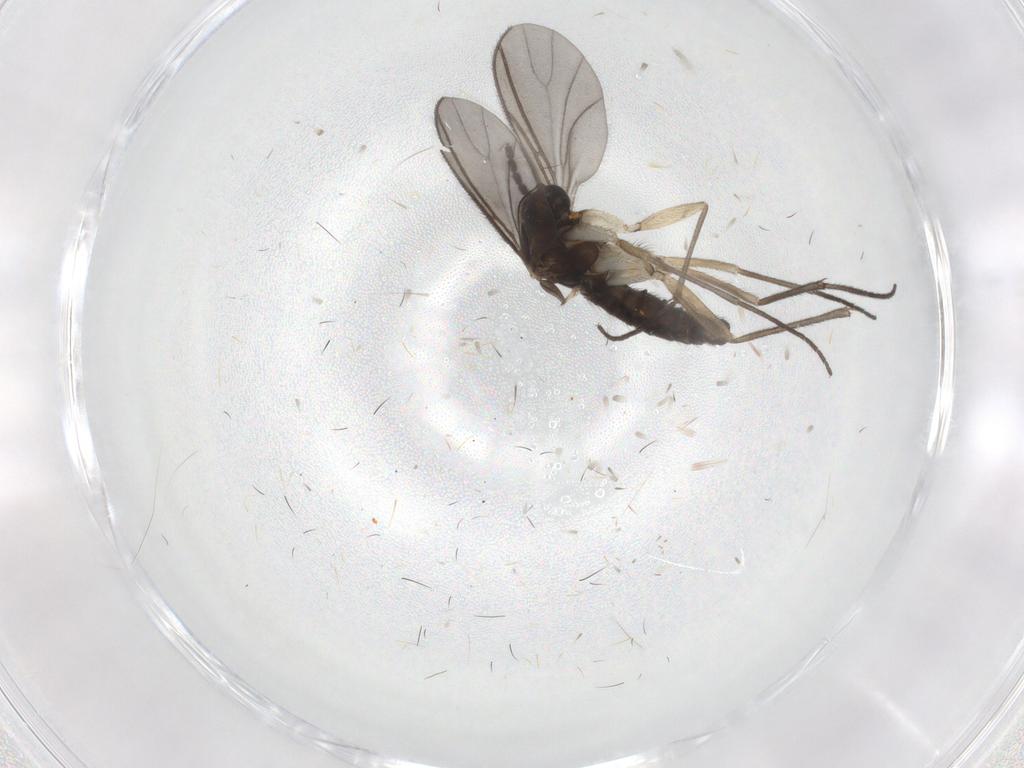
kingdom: Animalia
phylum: Arthropoda
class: Insecta
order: Diptera
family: Sciaridae
